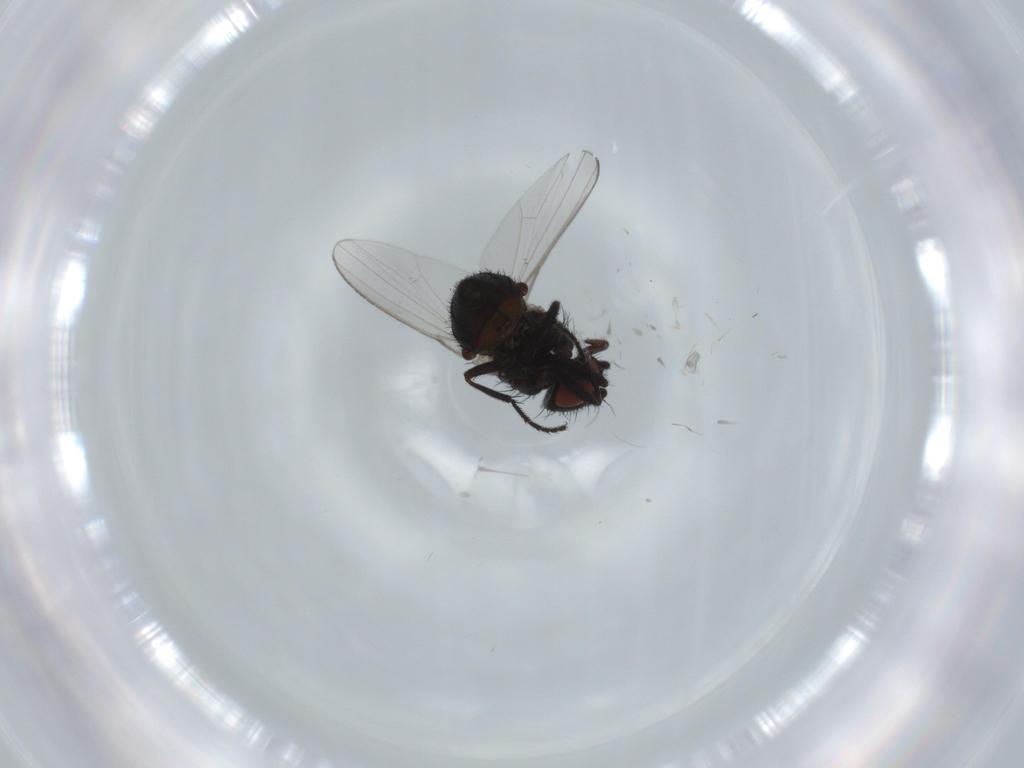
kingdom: Animalia
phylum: Arthropoda
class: Insecta
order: Diptera
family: Milichiidae
